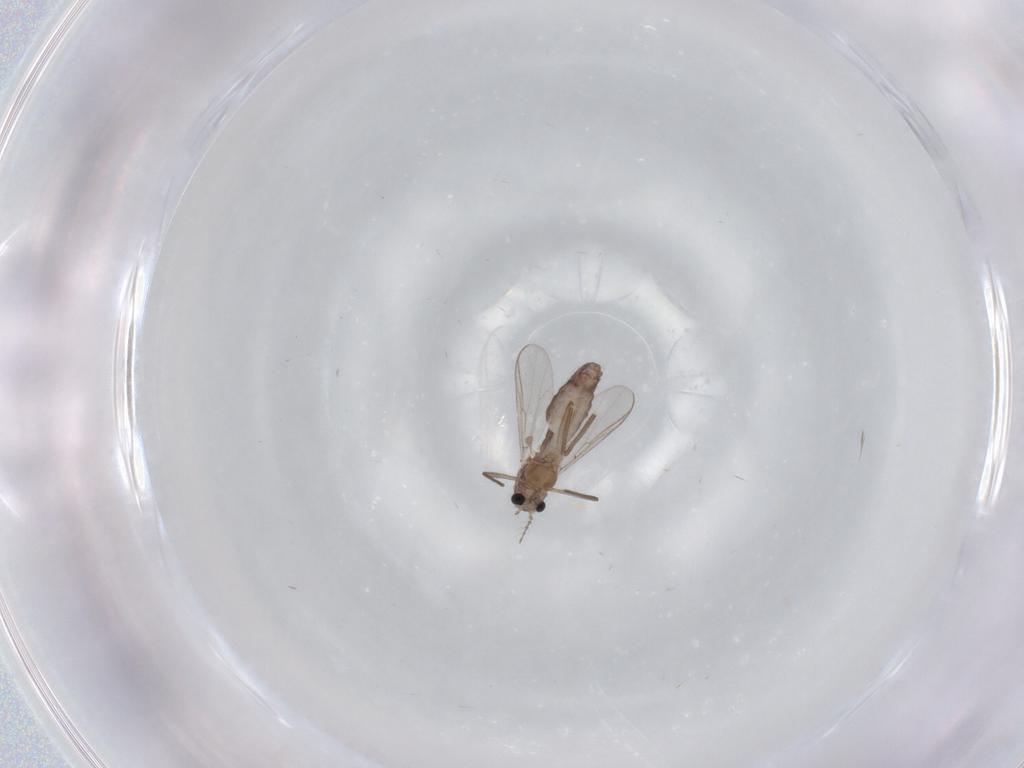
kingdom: Animalia
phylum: Arthropoda
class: Insecta
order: Diptera
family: Chironomidae
